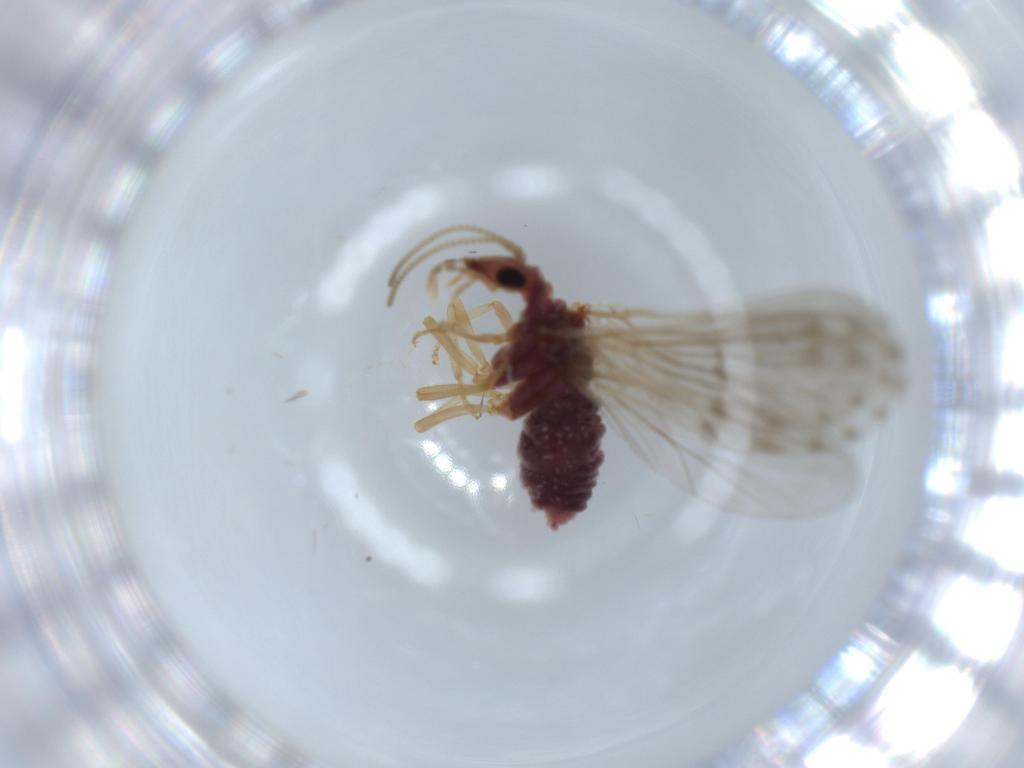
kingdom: Animalia
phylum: Arthropoda
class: Insecta
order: Neuroptera
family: Coniopterygidae
